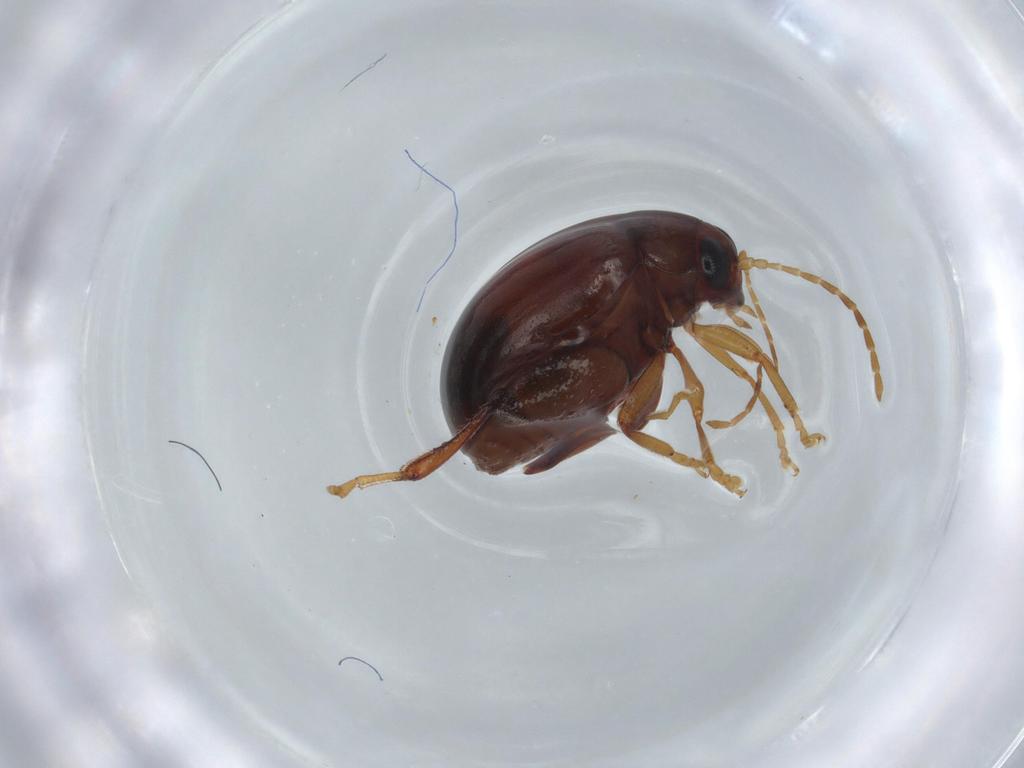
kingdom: Animalia
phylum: Arthropoda
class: Insecta
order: Coleoptera
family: Chrysomelidae
